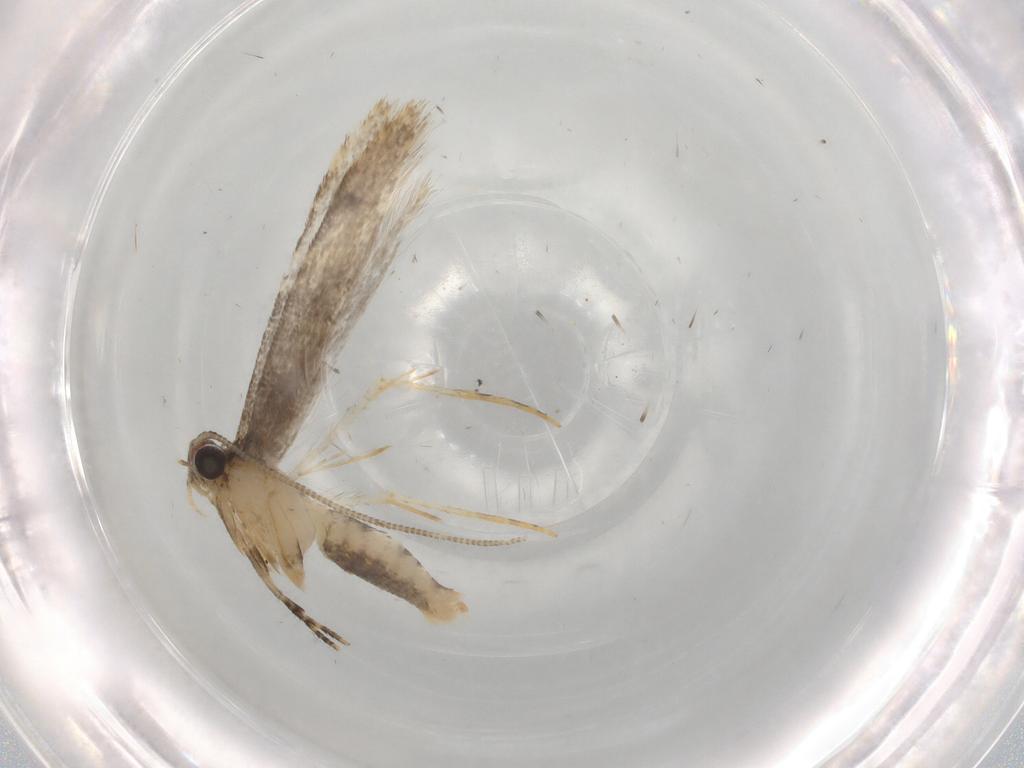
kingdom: Animalia
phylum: Arthropoda
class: Insecta
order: Lepidoptera
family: Tineidae
